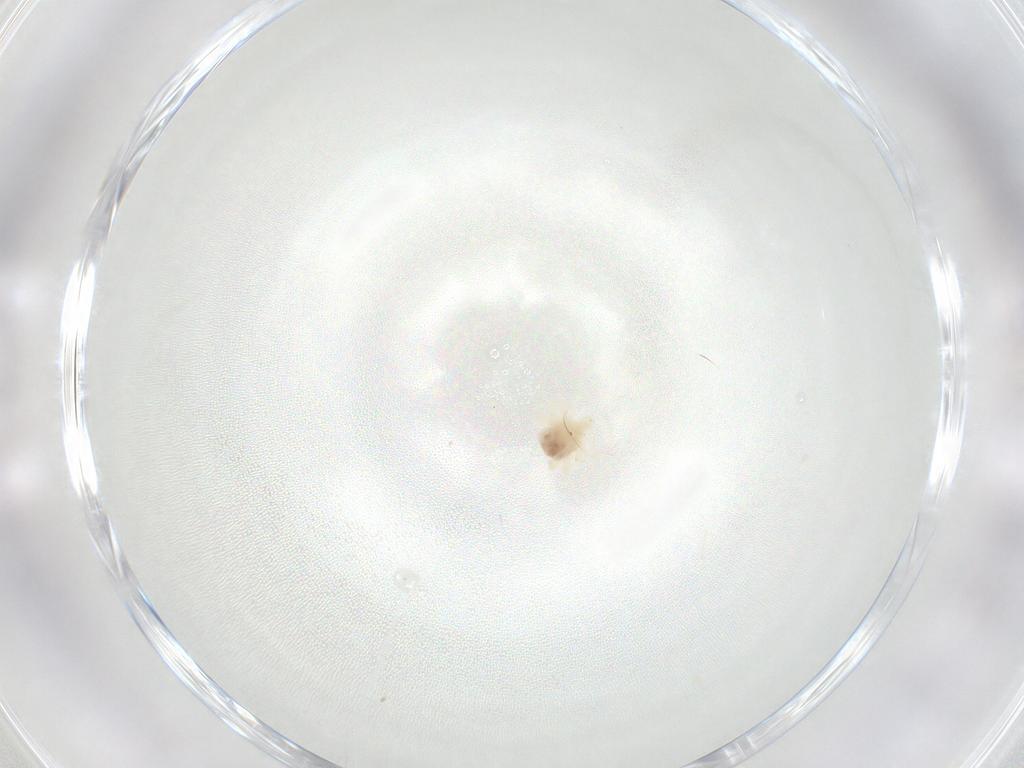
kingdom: Animalia
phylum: Arthropoda
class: Arachnida
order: Trombidiformes
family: Anystidae
